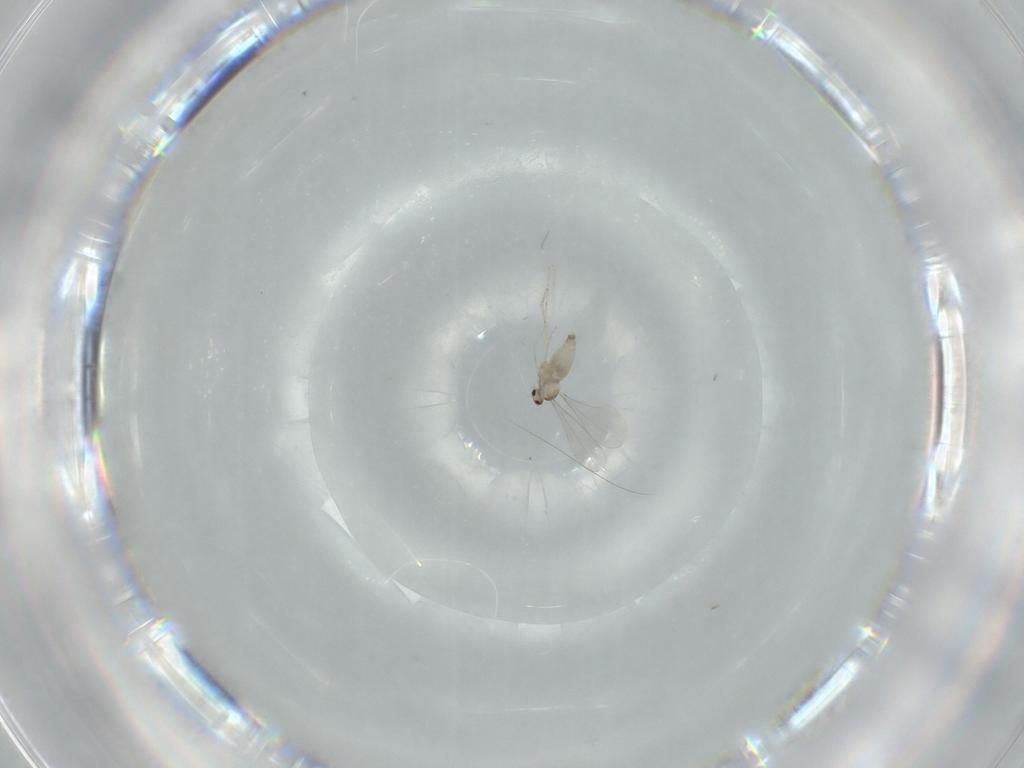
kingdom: Animalia
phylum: Arthropoda
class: Insecta
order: Diptera
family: Cecidomyiidae
